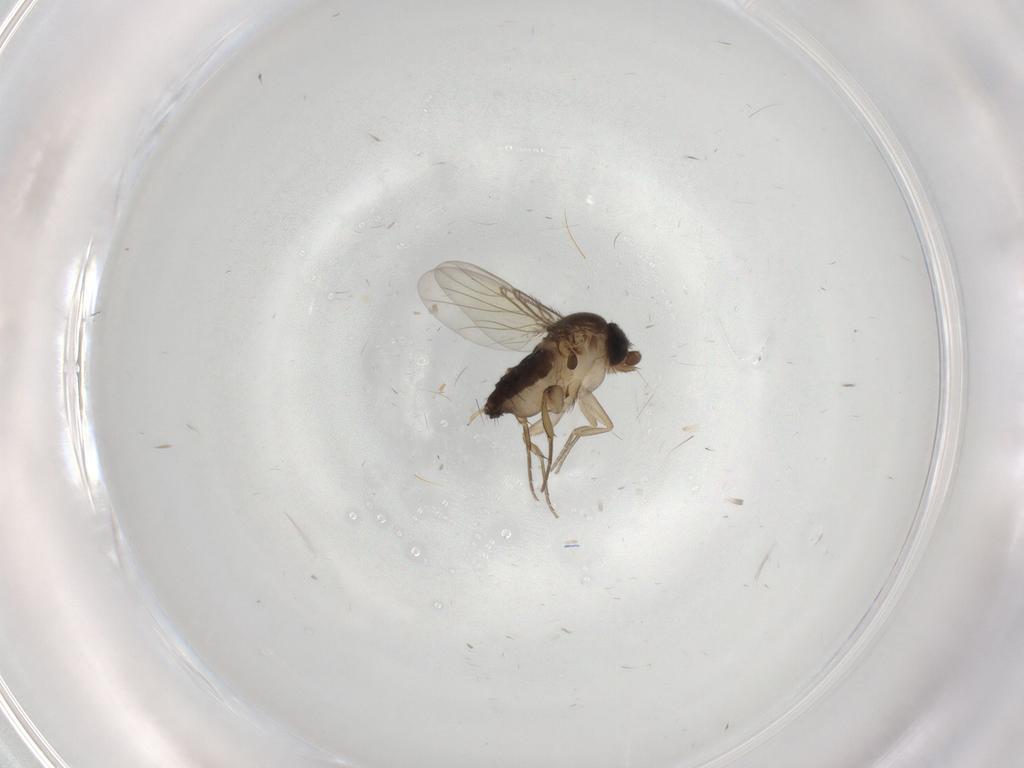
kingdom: Animalia
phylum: Arthropoda
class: Insecta
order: Diptera
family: Phoridae
